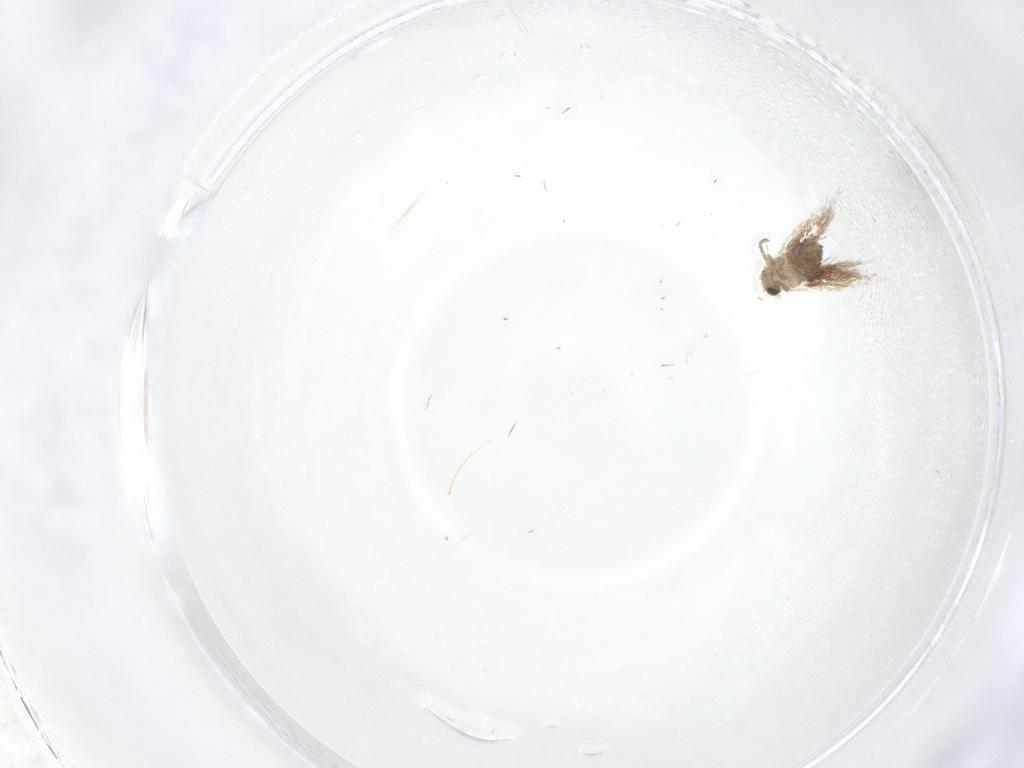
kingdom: Animalia
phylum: Arthropoda
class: Insecta
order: Lepidoptera
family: Nepticulidae
